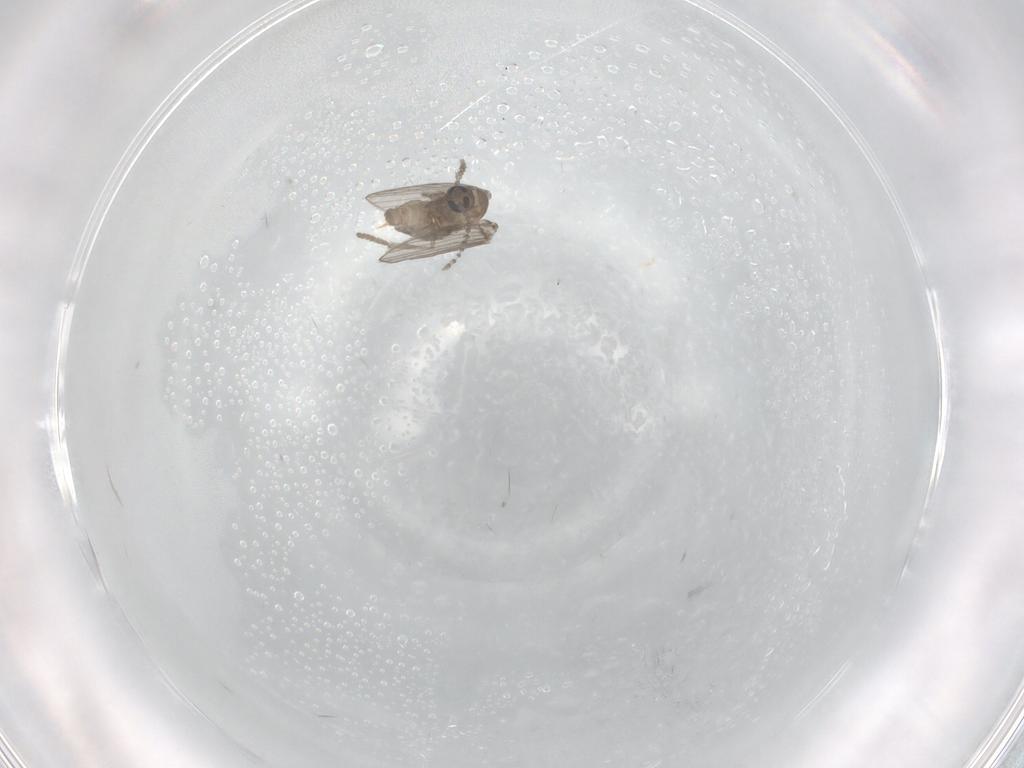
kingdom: Animalia
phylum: Arthropoda
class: Insecta
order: Diptera
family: Psychodidae
